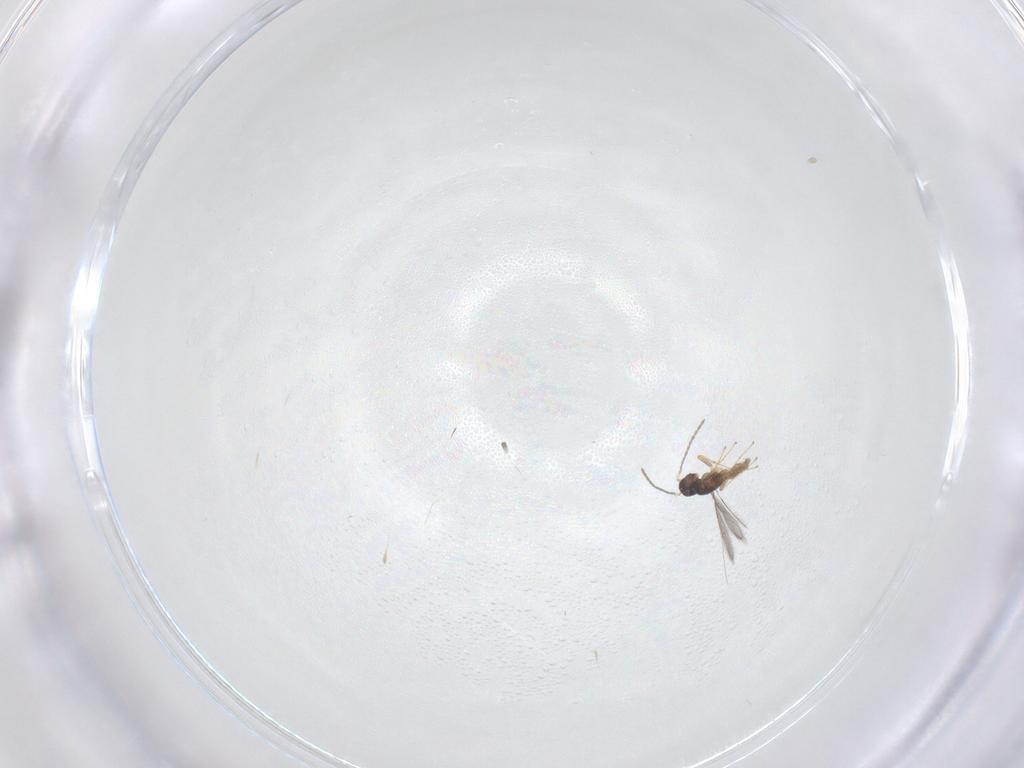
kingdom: Animalia
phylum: Arthropoda
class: Insecta
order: Hymenoptera
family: Mymaridae
